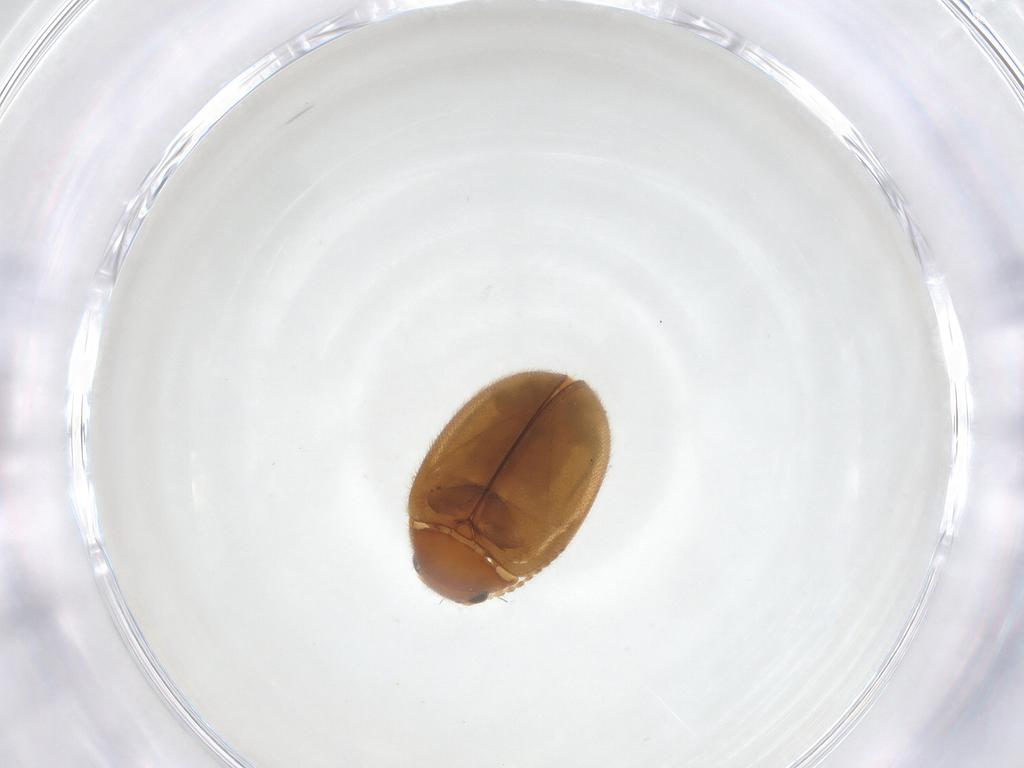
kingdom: Animalia
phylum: Arthropoda
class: Insecta
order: Coleoptera
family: Scirtidae
